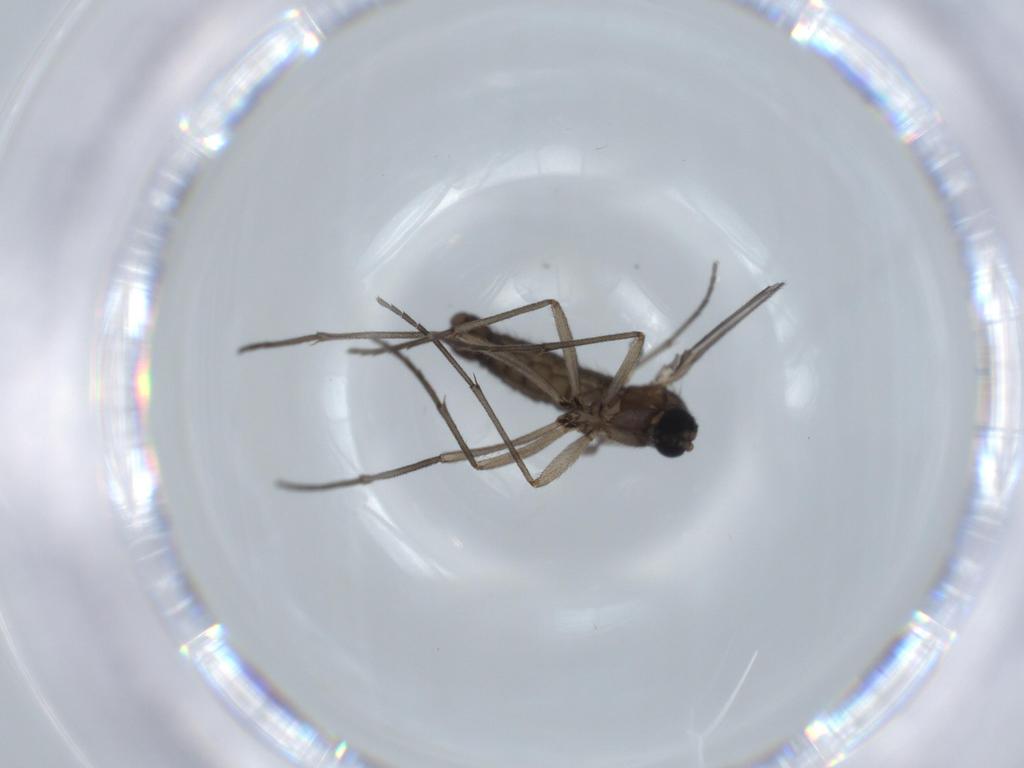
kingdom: Animalia
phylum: Arthropoda
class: Insecta
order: Diptera
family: Sciaridae
